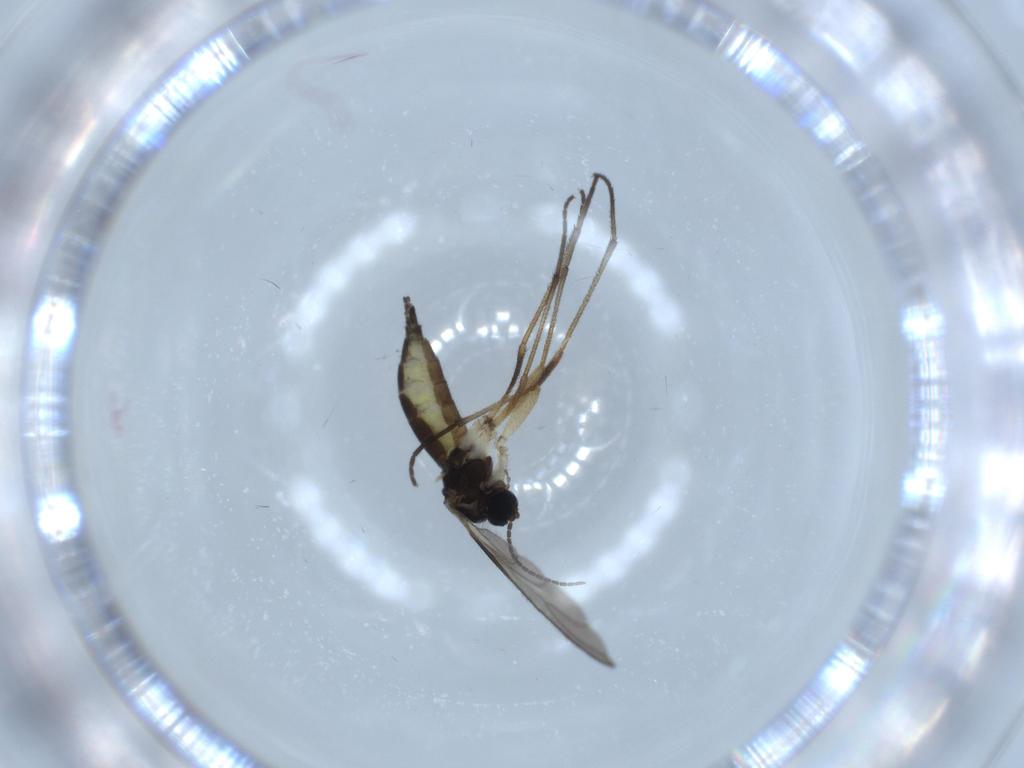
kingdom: Animalia
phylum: Arthropoda
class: Insecta
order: Diptera
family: Sciaridae
